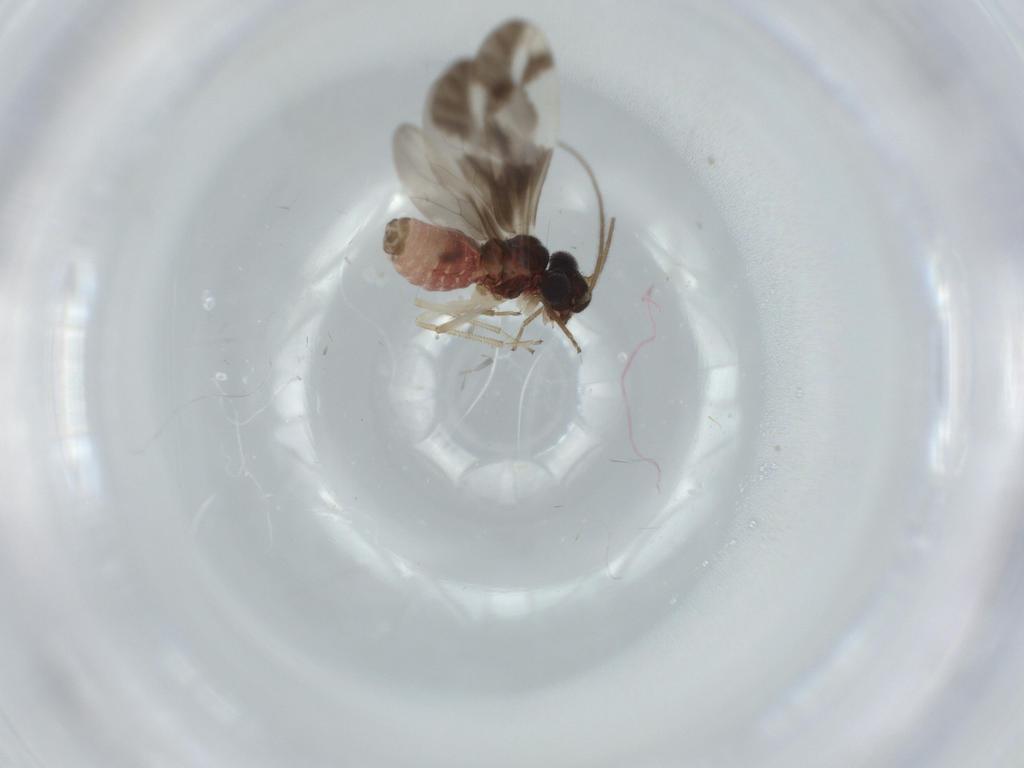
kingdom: Animalia
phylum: Arthropoda
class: Insecta
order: Psocodea
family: Caeciliusidae
